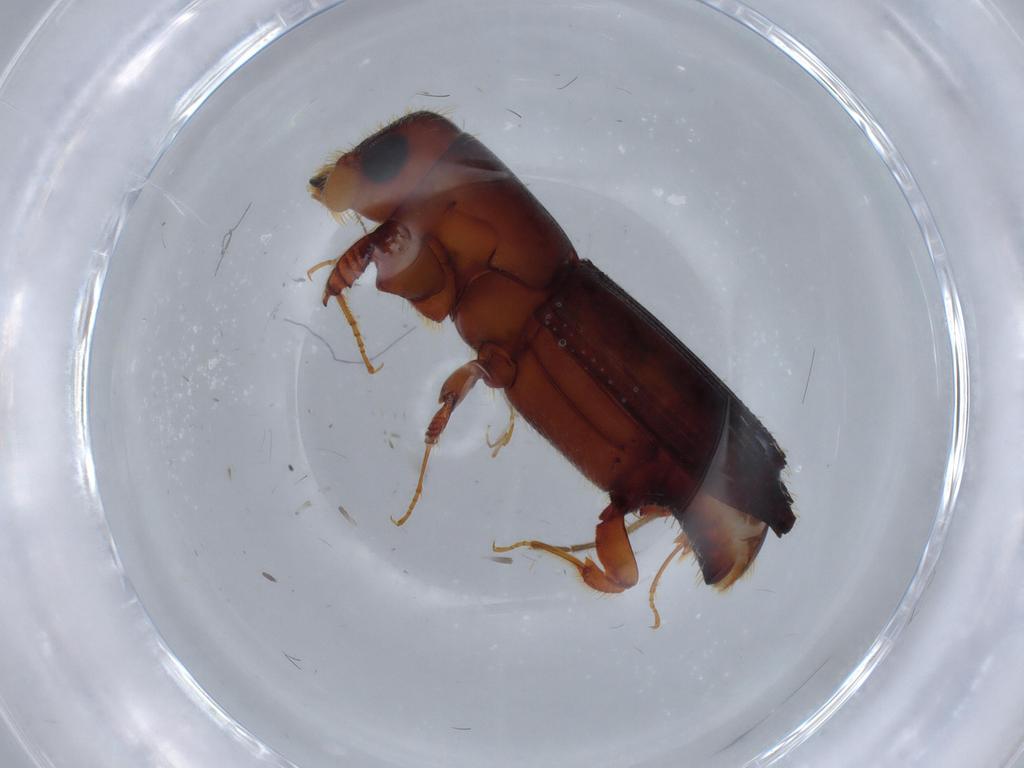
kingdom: Animalia
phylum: Arthropoda
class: Insecta
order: Coleoptera
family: Curculionidae
